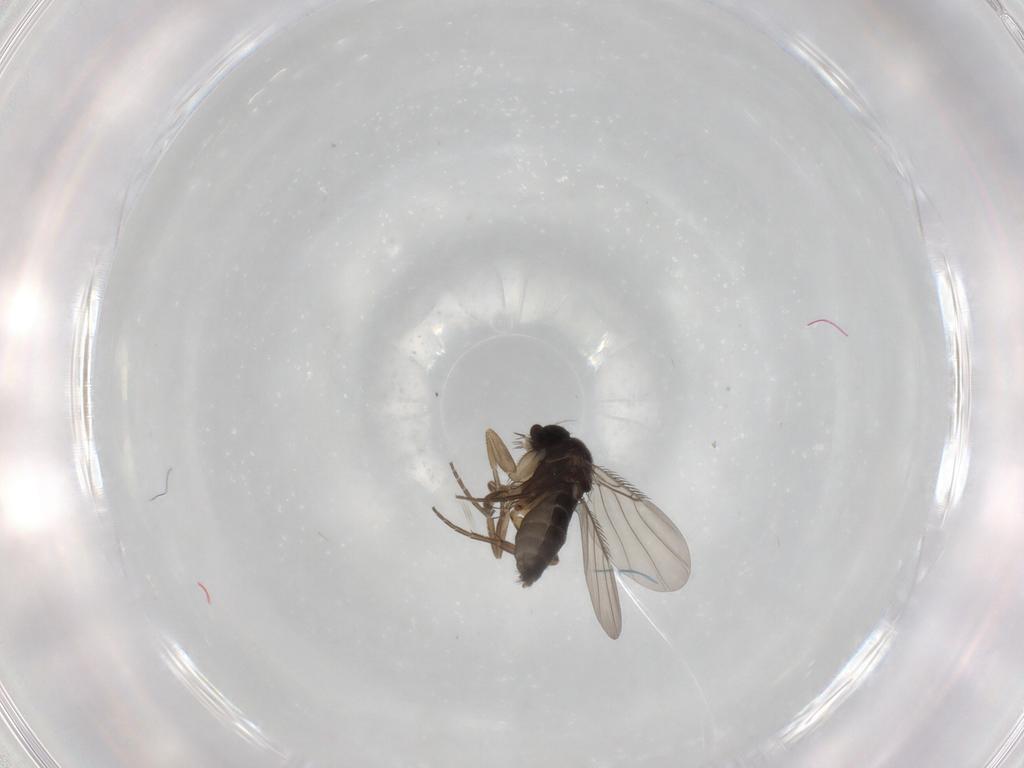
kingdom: Animalia
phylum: Arthropoda
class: Insecta
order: Diptera
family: Phoridae
